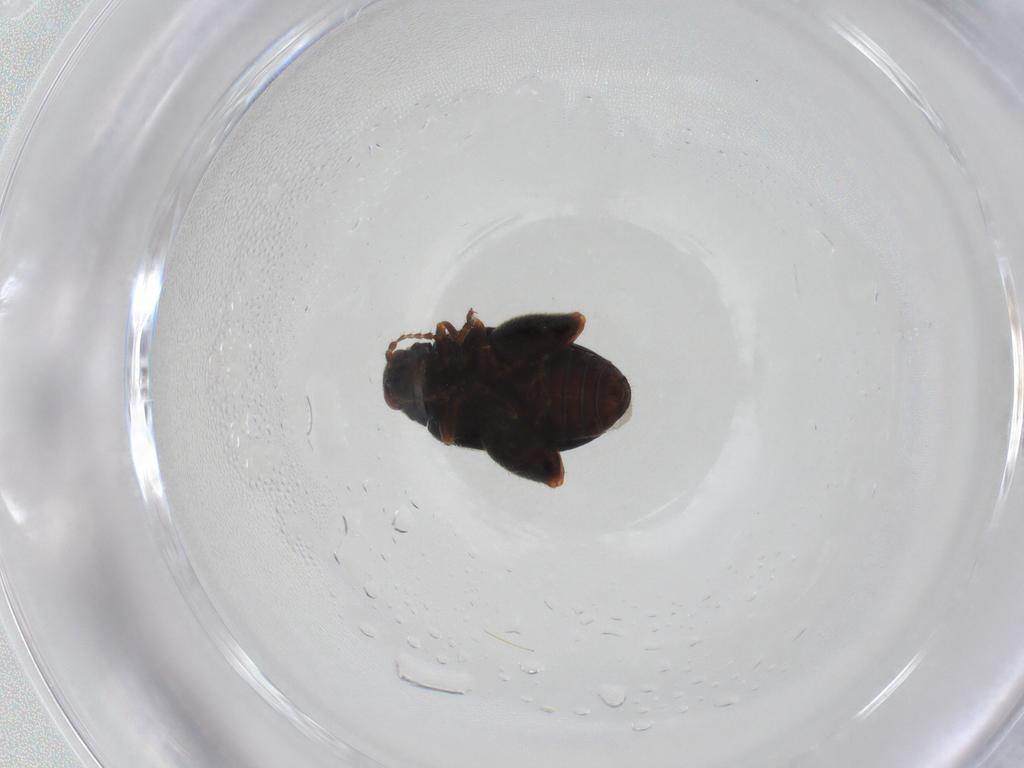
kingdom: Animalia
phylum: Arthropoda
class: Insecta
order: Coleoptera
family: Chrysomelidae
